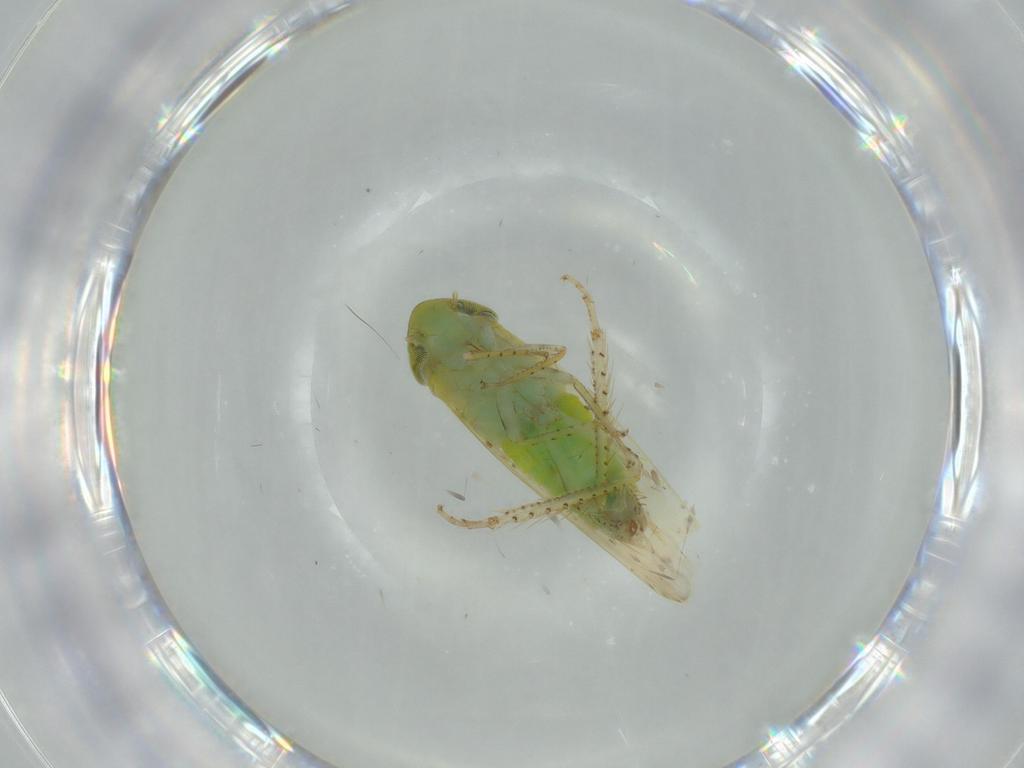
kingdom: Animalia
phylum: Arthropoda
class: Insecta
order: Hemiptera
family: Cicadellidae
